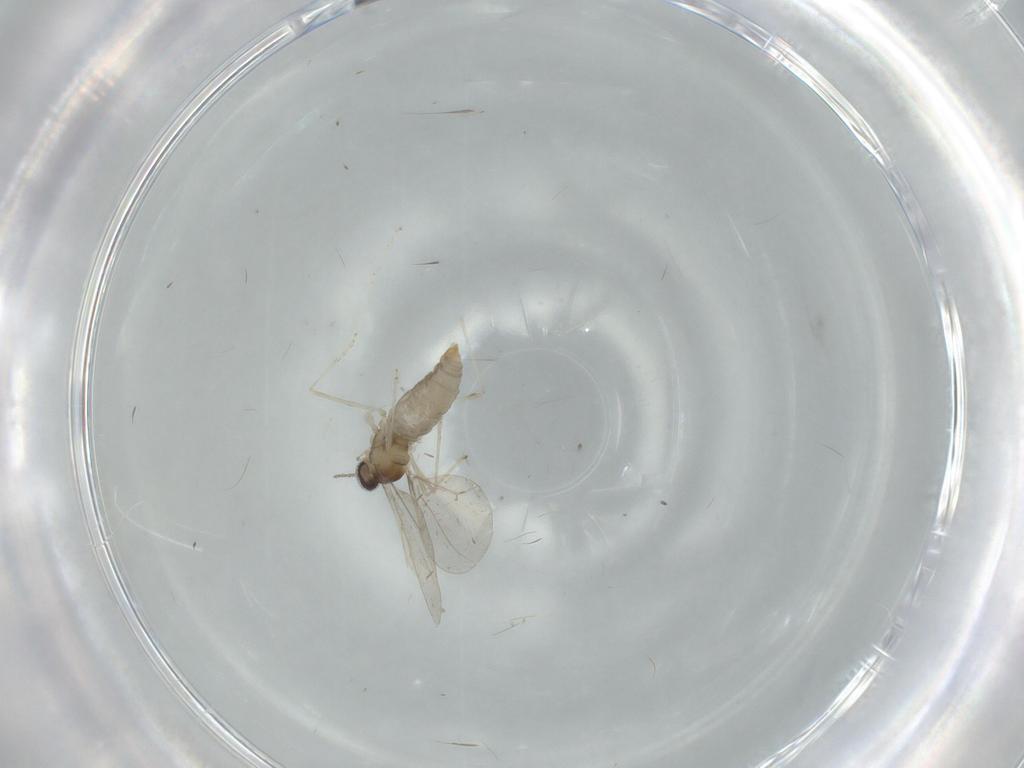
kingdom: Animalia
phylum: Arthropoda
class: Insecta
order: Diptera
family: Cecidomyiidae
